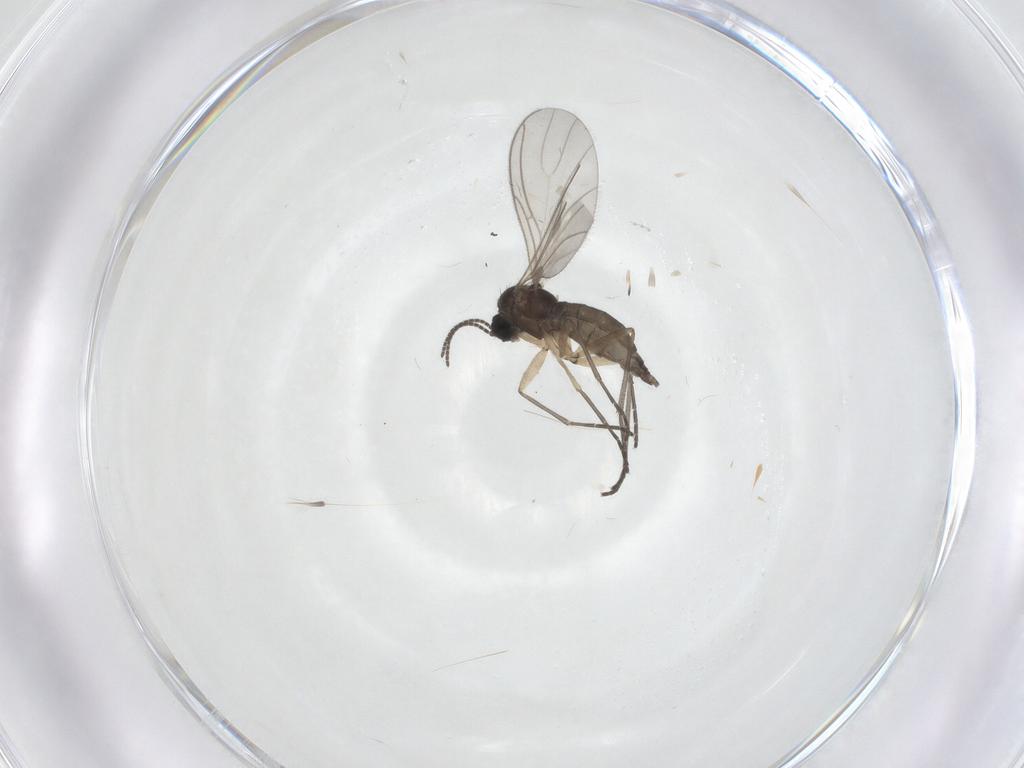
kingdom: Animalia
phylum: Arthropoda
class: Insecta
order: Diptera
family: Sciaridae
